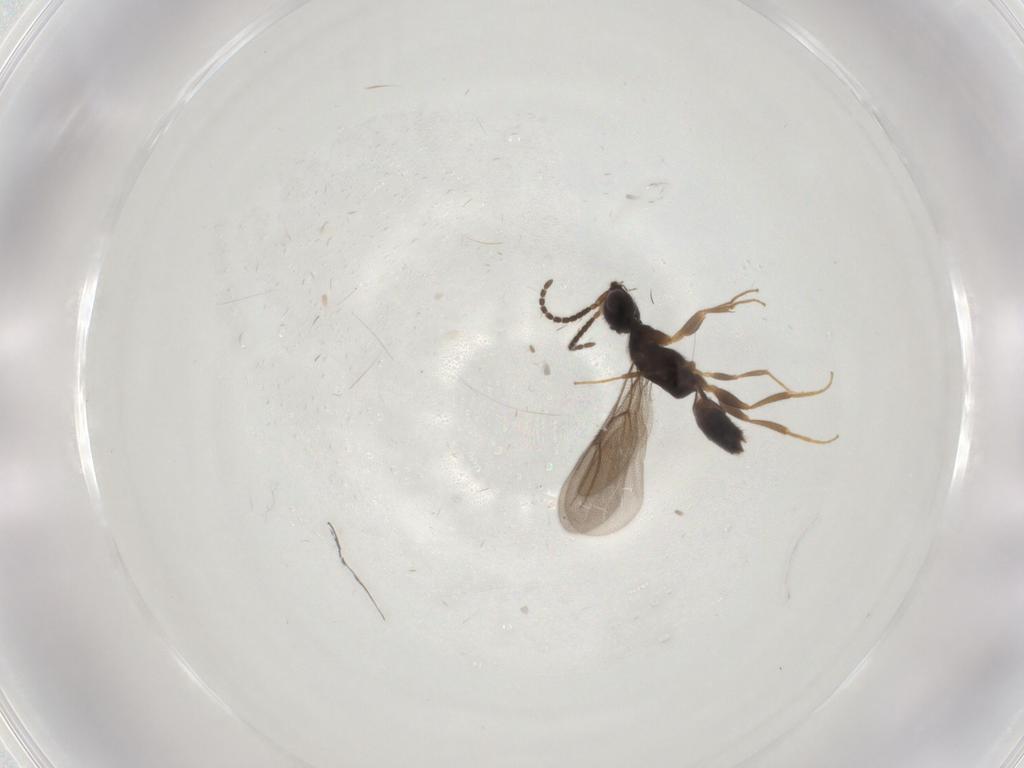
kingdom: Animalia
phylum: Arthropoda
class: Insecta
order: Hymenoptera
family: Bethylidae
